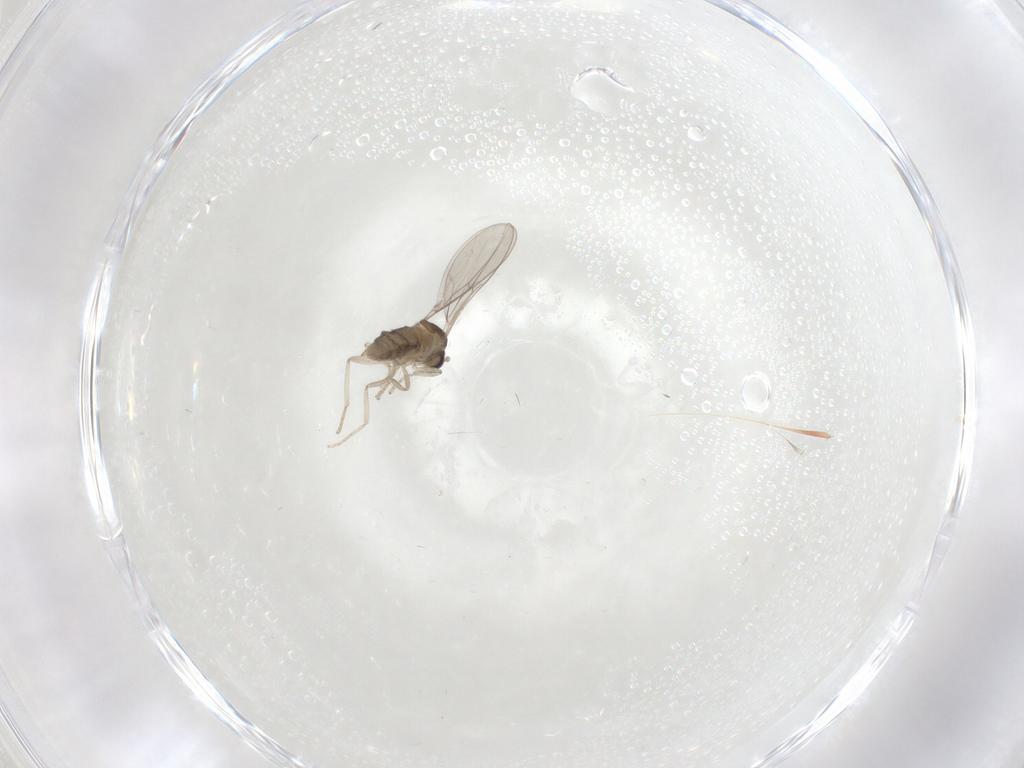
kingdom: Animalia
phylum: Arthropoda
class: Insecta
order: Diptera
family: Cecidomyiidae
